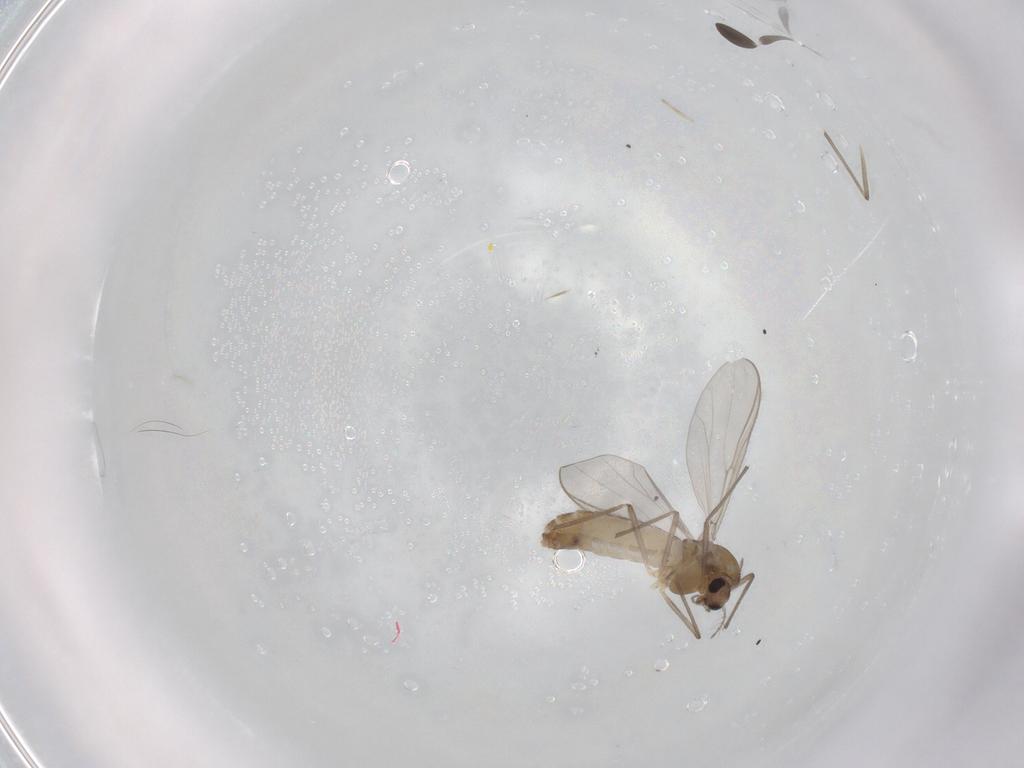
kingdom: Animalia
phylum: Arthropoda
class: Insecta
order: Diptera
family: Chironomidae
